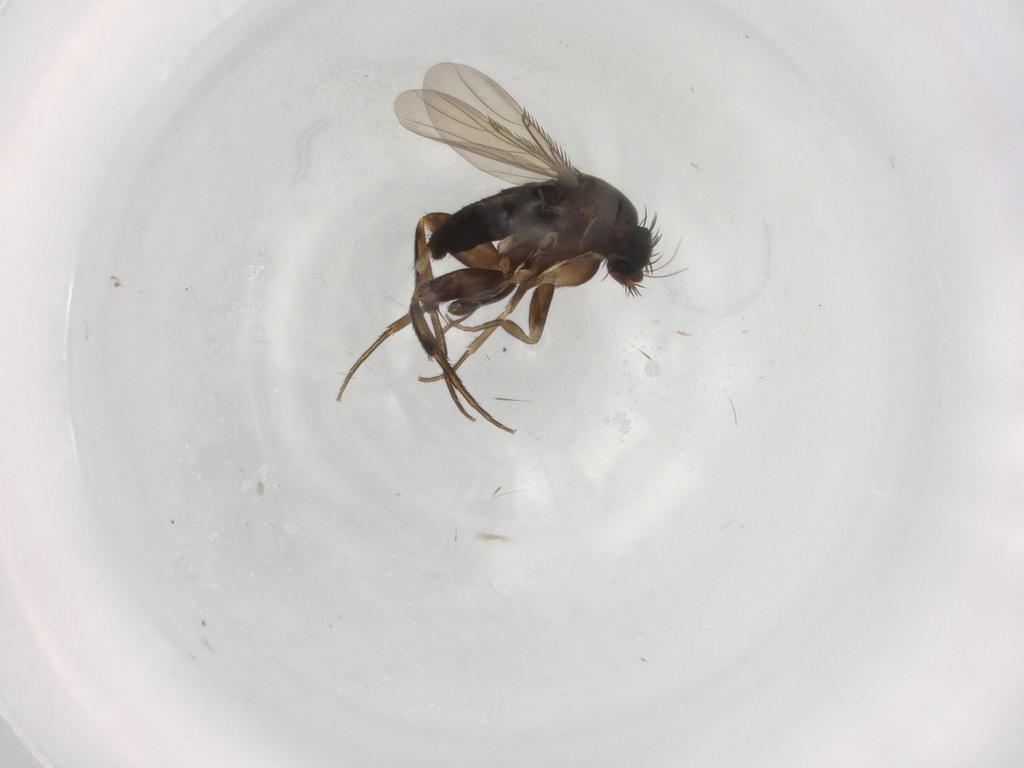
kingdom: Animalia
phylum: Arthropoda
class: Insecta
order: Diptera
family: Phoridae
